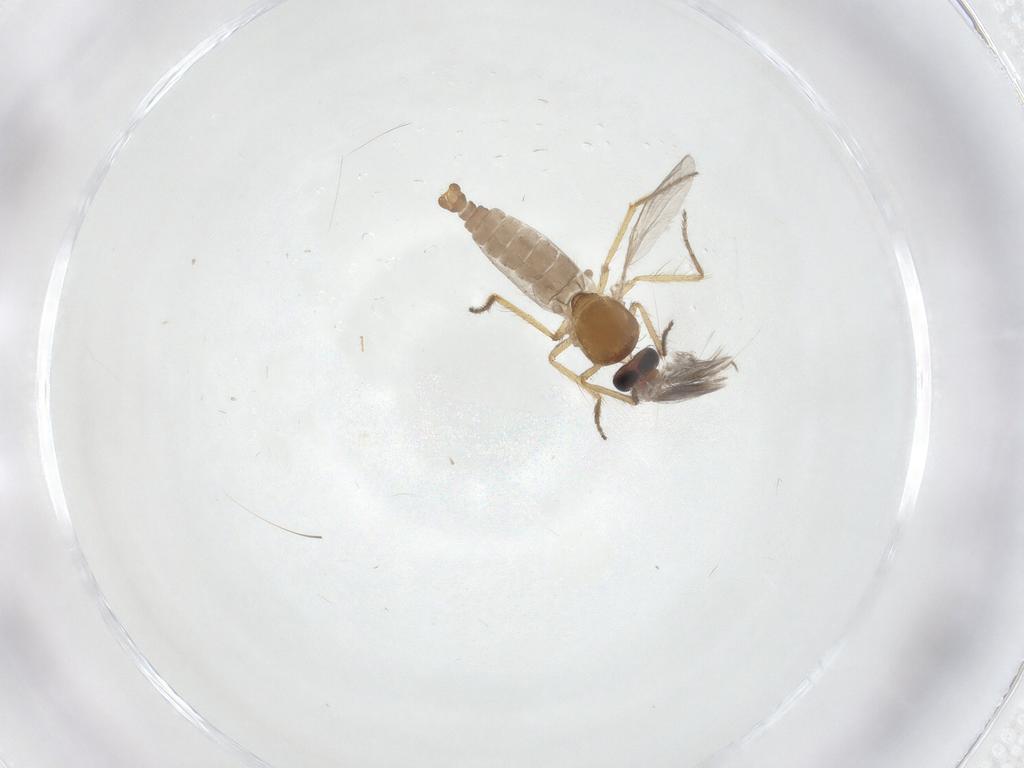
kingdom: Animalia
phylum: Arthropoda
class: Insecta
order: Diptera
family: Ceratopogonidae
